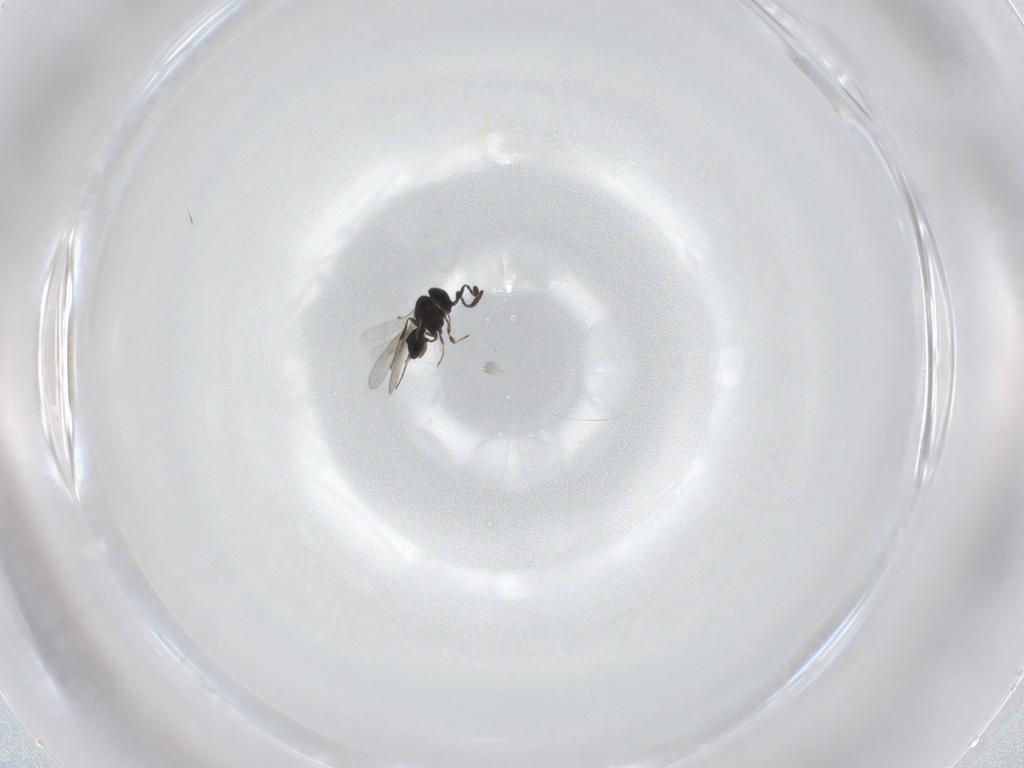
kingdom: Animalia
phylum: Arthropoda
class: Insecta
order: Hymenoptera
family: Scelionidae
